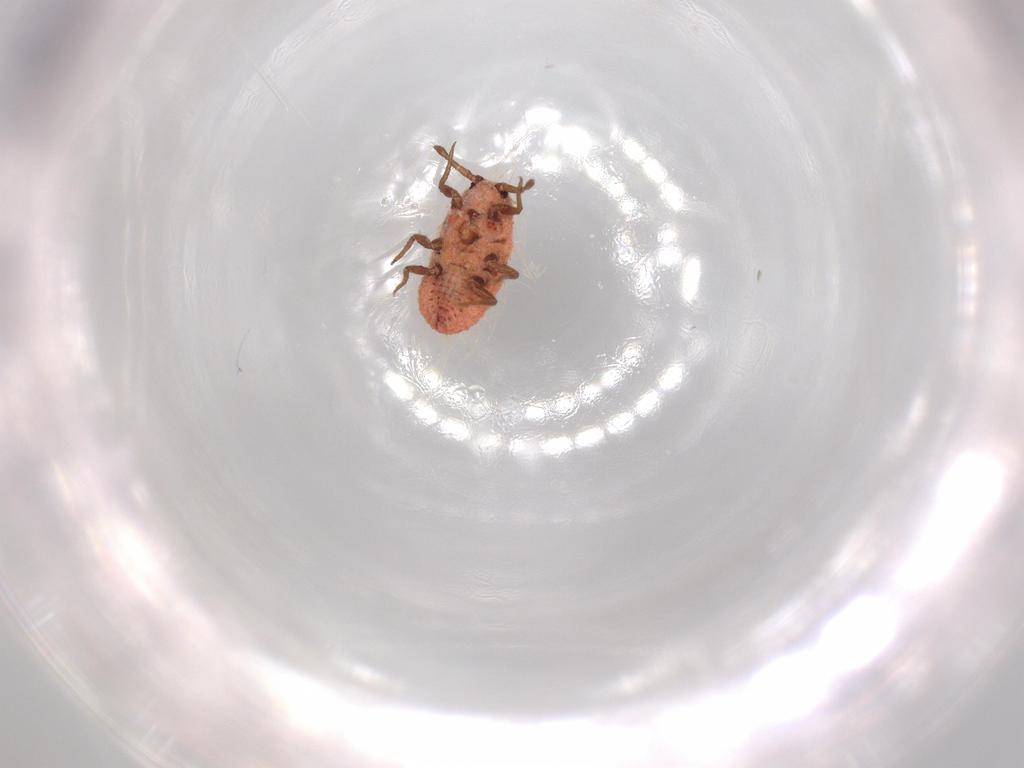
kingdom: Animalia
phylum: Arthropoda
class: Insecta
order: Hemiptera
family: Coccoidea_incertae_sedis
